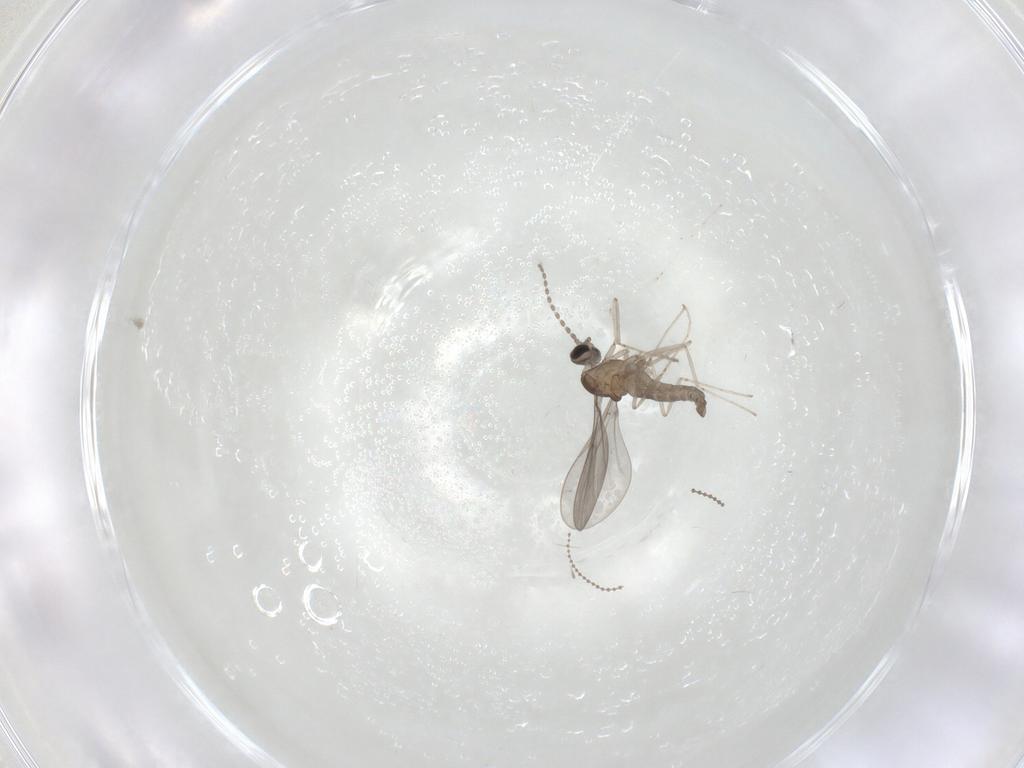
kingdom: Animalia
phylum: Arthropoda
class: Insecta
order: Diptera
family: Cecidomyiidae
